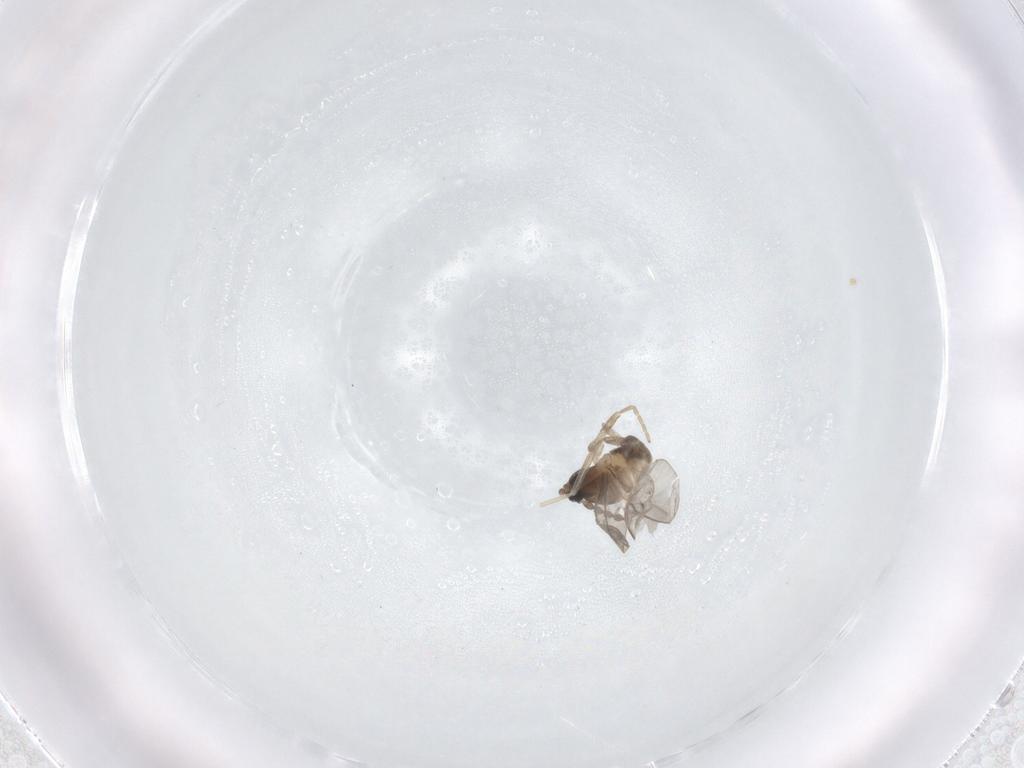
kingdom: Animalia
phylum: Arthropoda
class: Insecta
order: Diptera
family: Cecidomyiidae
